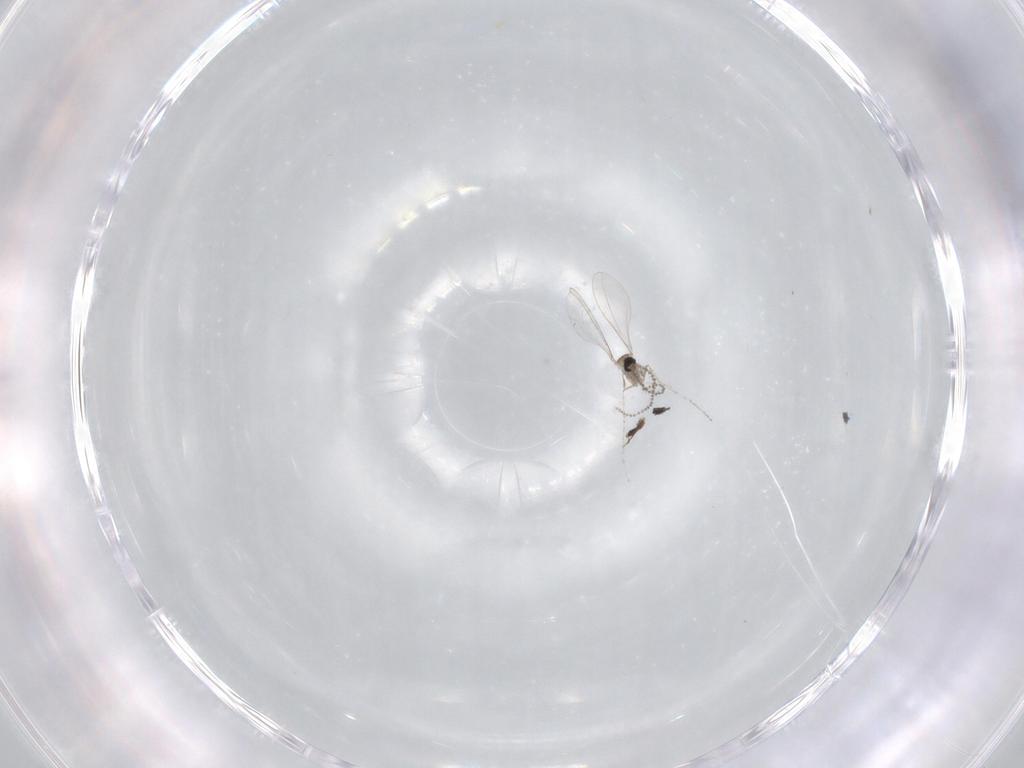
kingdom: Animalia
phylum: Arthropoda
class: Insecta
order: Diptera
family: Cecidomyiidae
